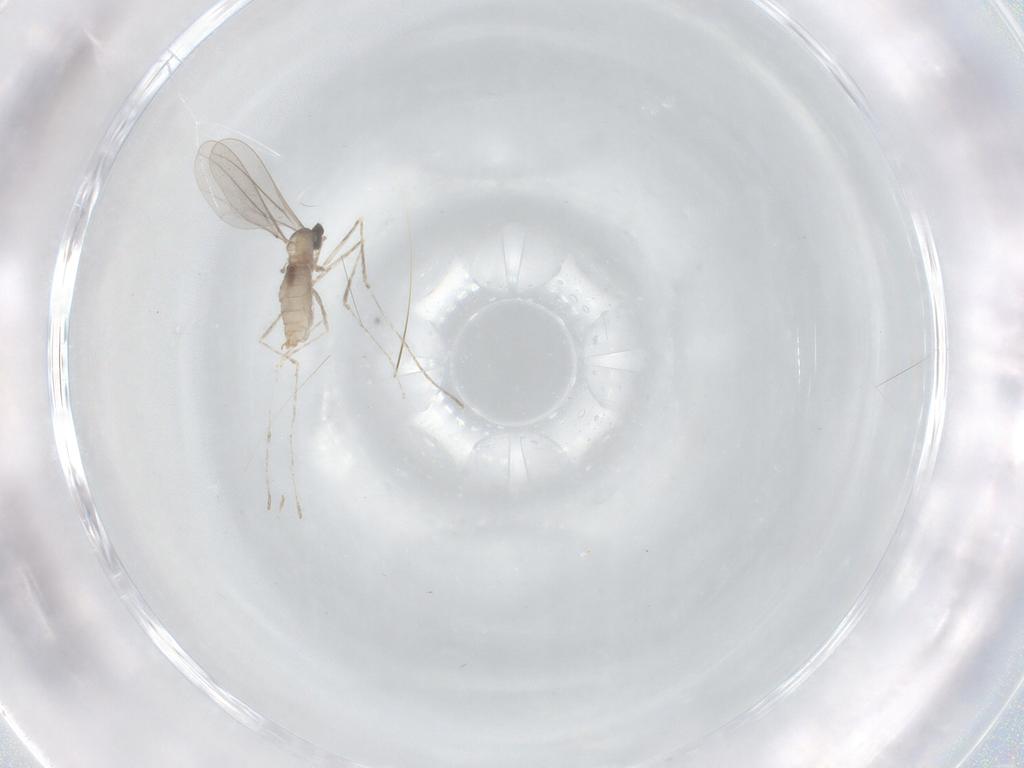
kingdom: Animalia
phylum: Arthropoda
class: Insecta
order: Diptera
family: Cecidomyiidae
